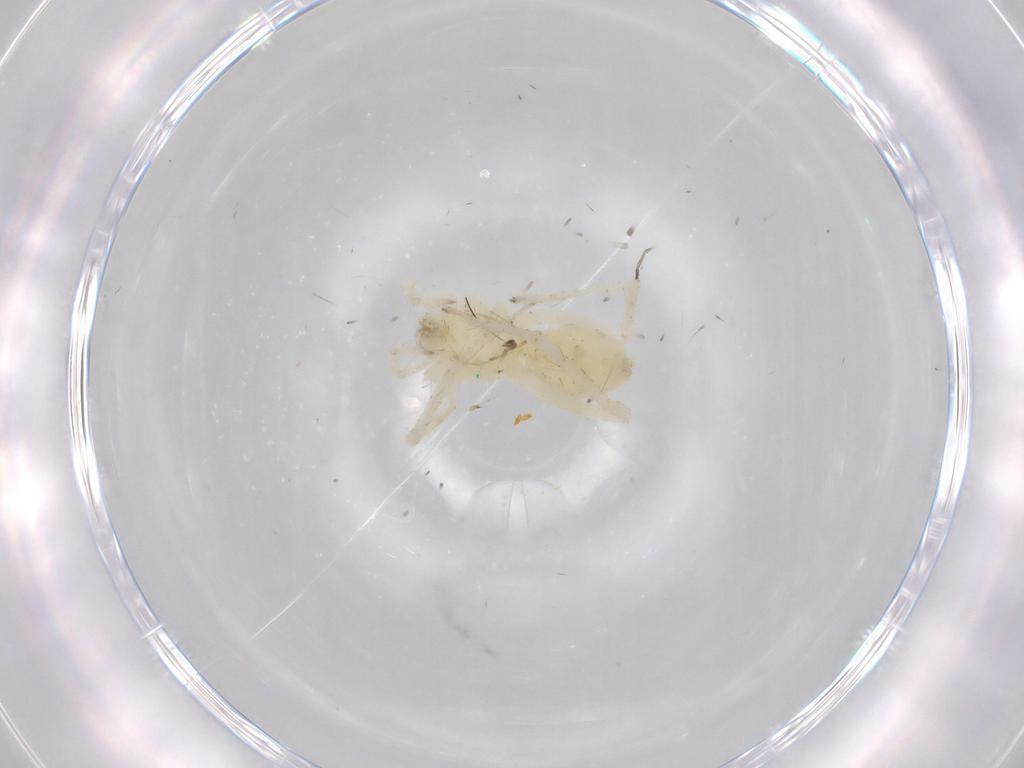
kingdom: Animalia
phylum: Arthropoda
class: Arachnida
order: Araneae
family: Anyphaenidae
